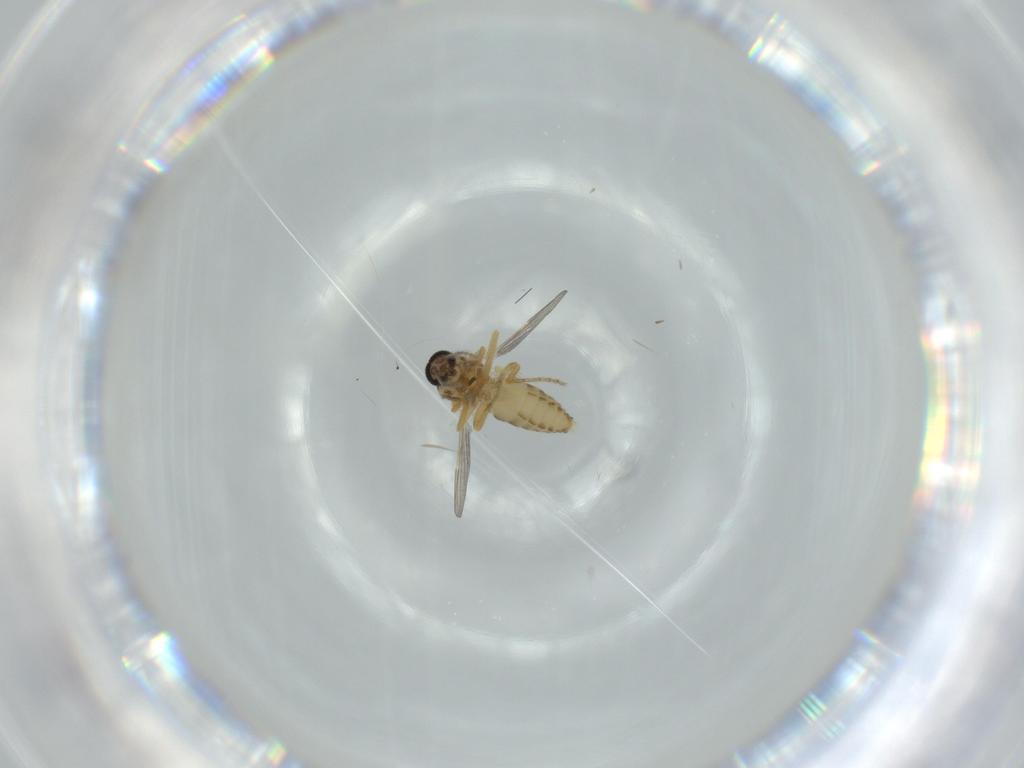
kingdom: Animalia
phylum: Arthropoda
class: Insecta
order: Diptera
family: Ceratopogonidae
